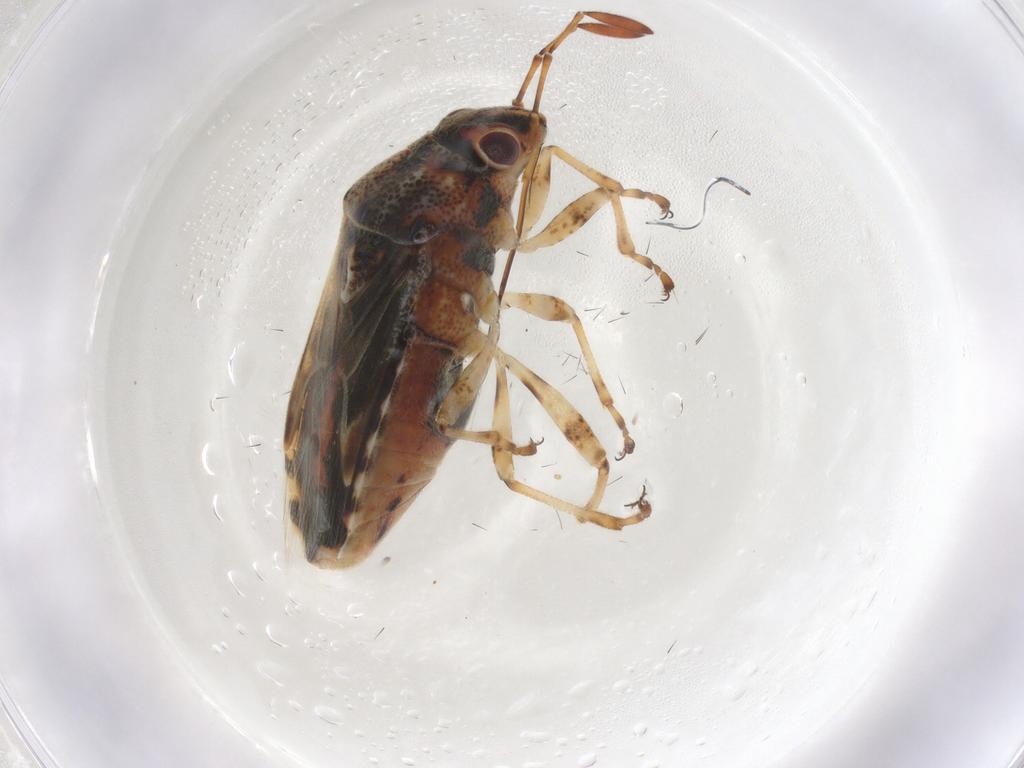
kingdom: Animalia
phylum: Arthropoda
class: Insecta
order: Hemiptera
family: Lygaeidae
